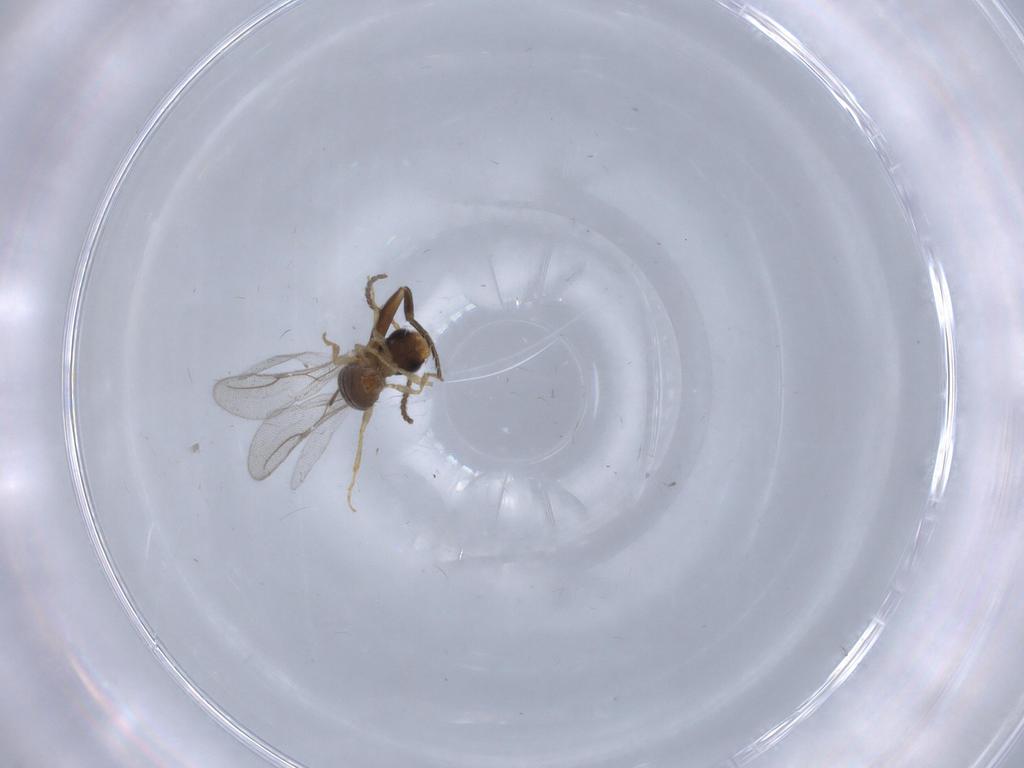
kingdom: Animalia
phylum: Arthropoda
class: Insecta
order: Hymenoptera
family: Bethylidae
